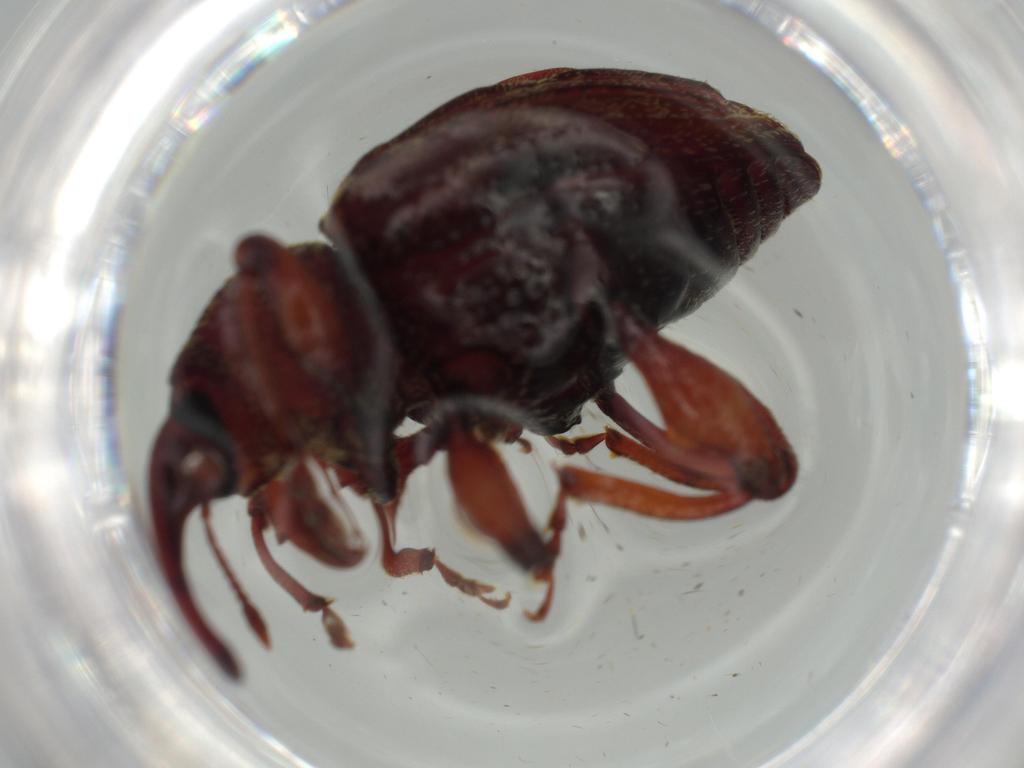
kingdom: Animalia
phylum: Arthropoda
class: Insecta
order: Coleoptera
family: Curculionidae
